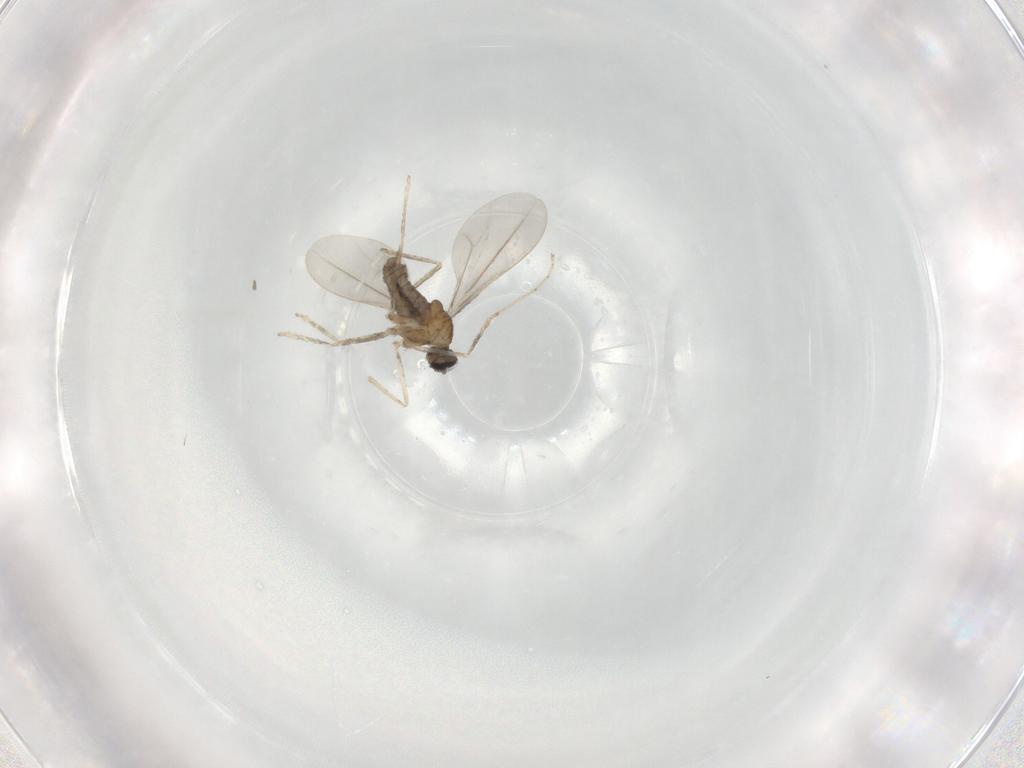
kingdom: Animalia
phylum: Arthropoda
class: Insecta
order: Diptera
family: Cecidomyiidae
